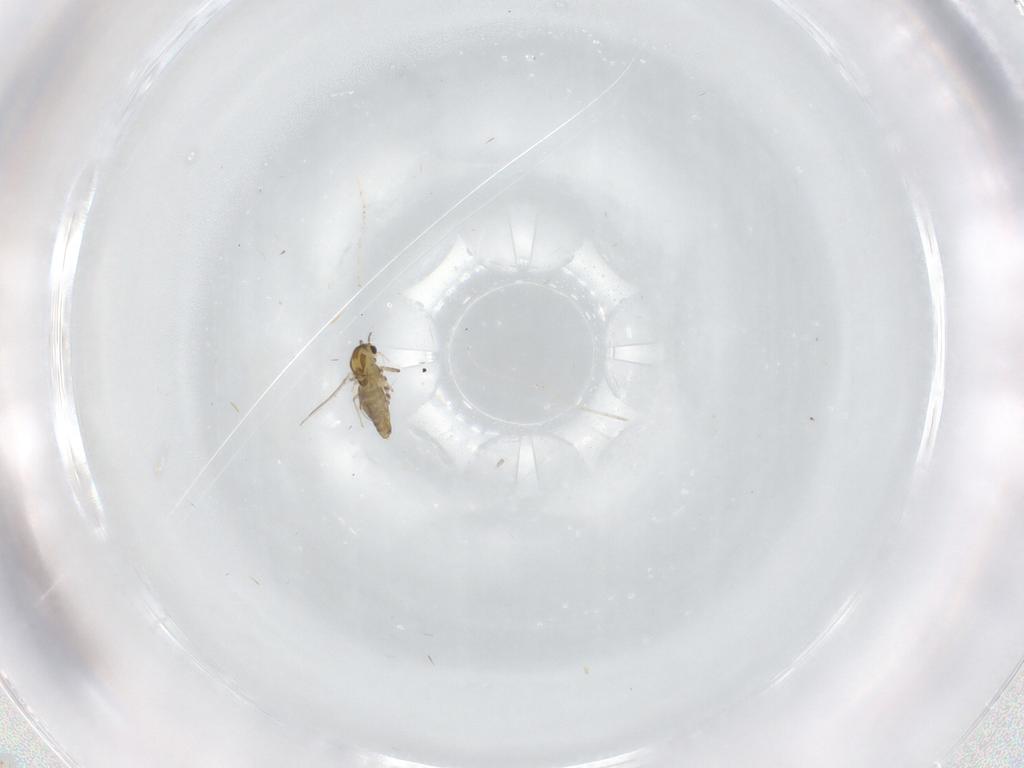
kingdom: Animalia
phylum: Arthropoda
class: Insecta
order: Diptera
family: Chironomidae
